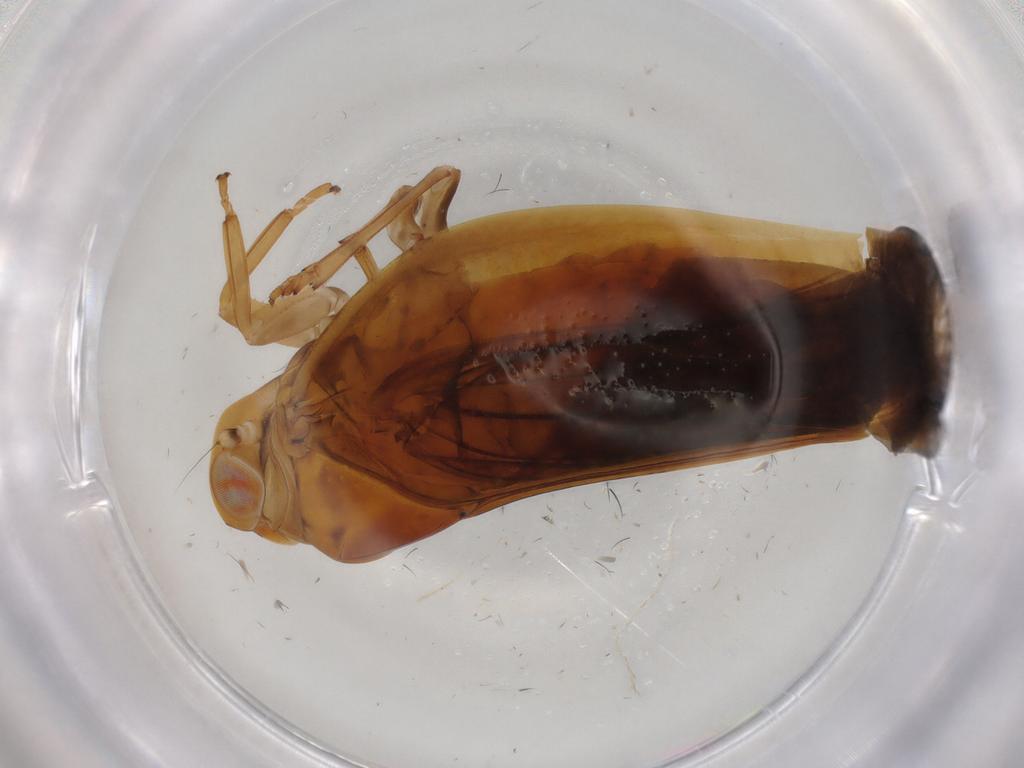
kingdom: Animalia
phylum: Arthropoda
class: Insecta
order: Hemiptera
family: Nogodinidae
